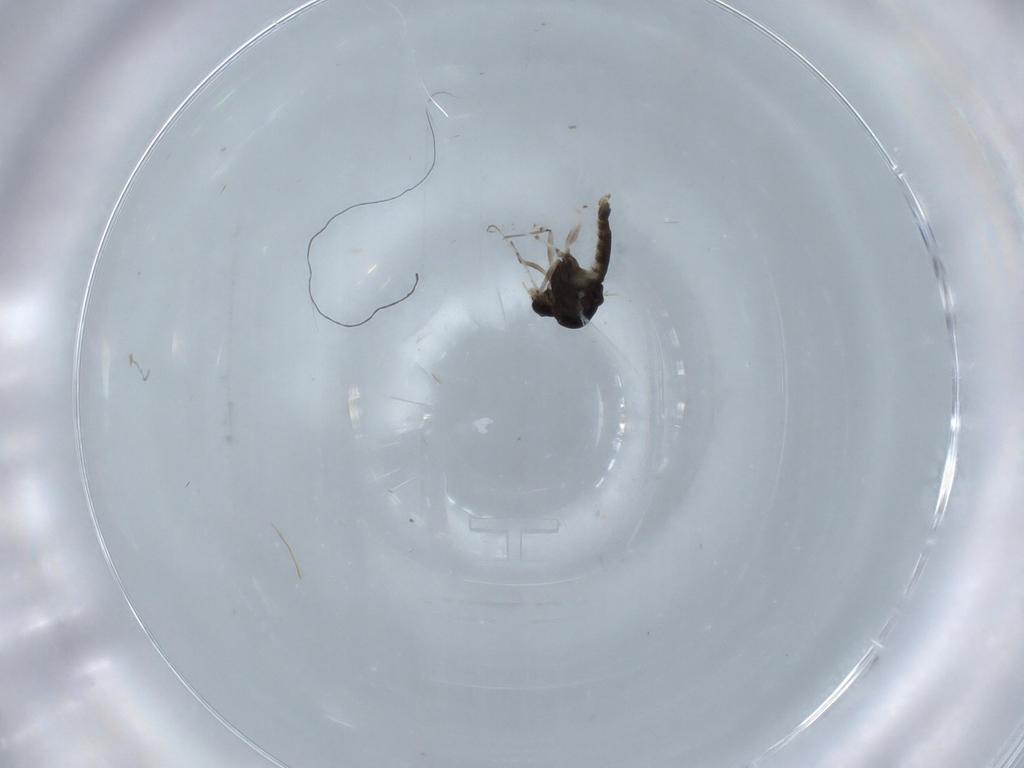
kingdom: Animalia
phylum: Arthropoda
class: Insecta
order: Diptera
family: Chironomidae
